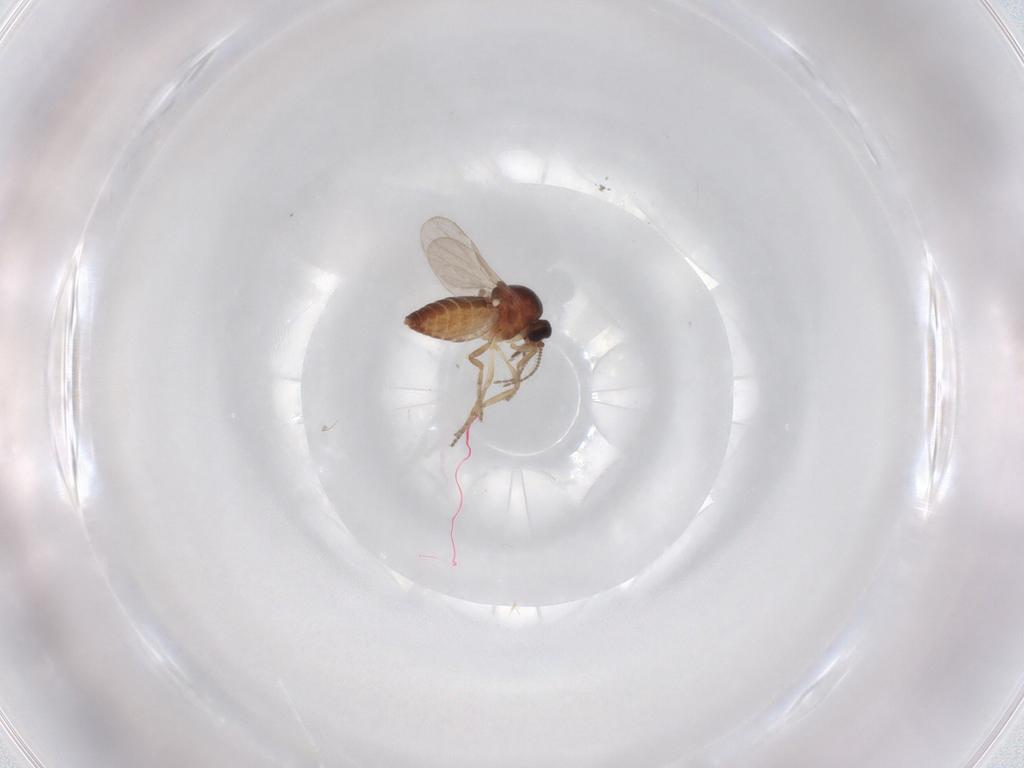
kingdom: Animalia
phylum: Arthropoda
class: Insecta
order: Diptera
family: Ceratopogonidae
